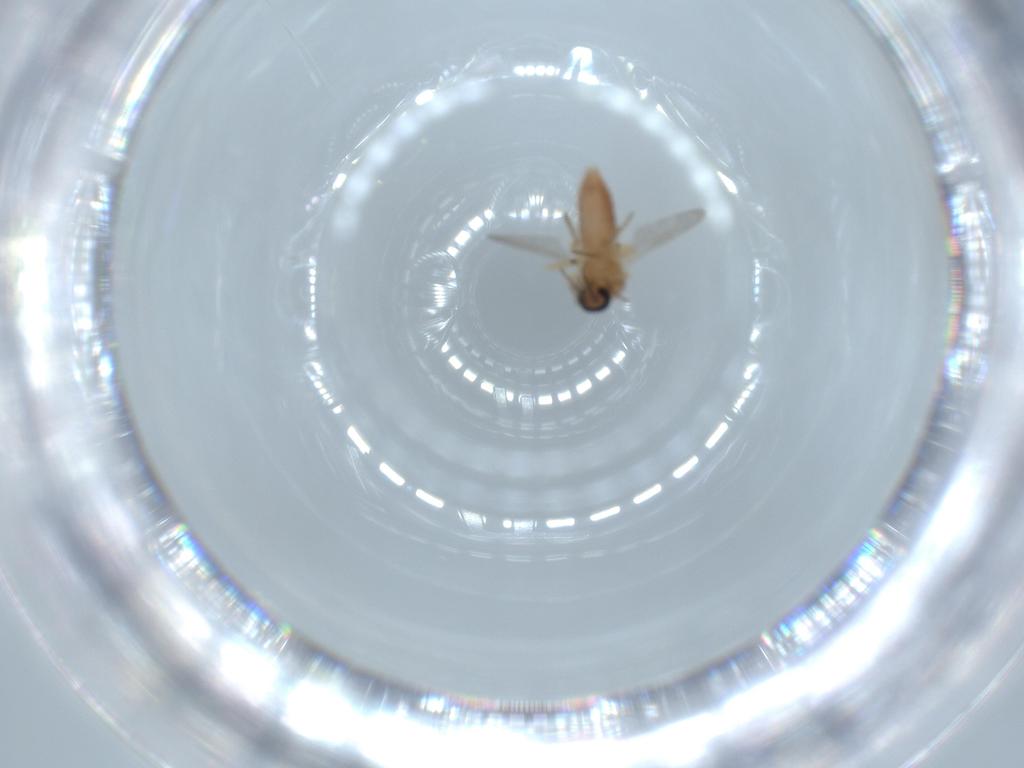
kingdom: Animalia
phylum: Arthropoda
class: Insecta
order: Diptera
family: Ceratopogonidae
